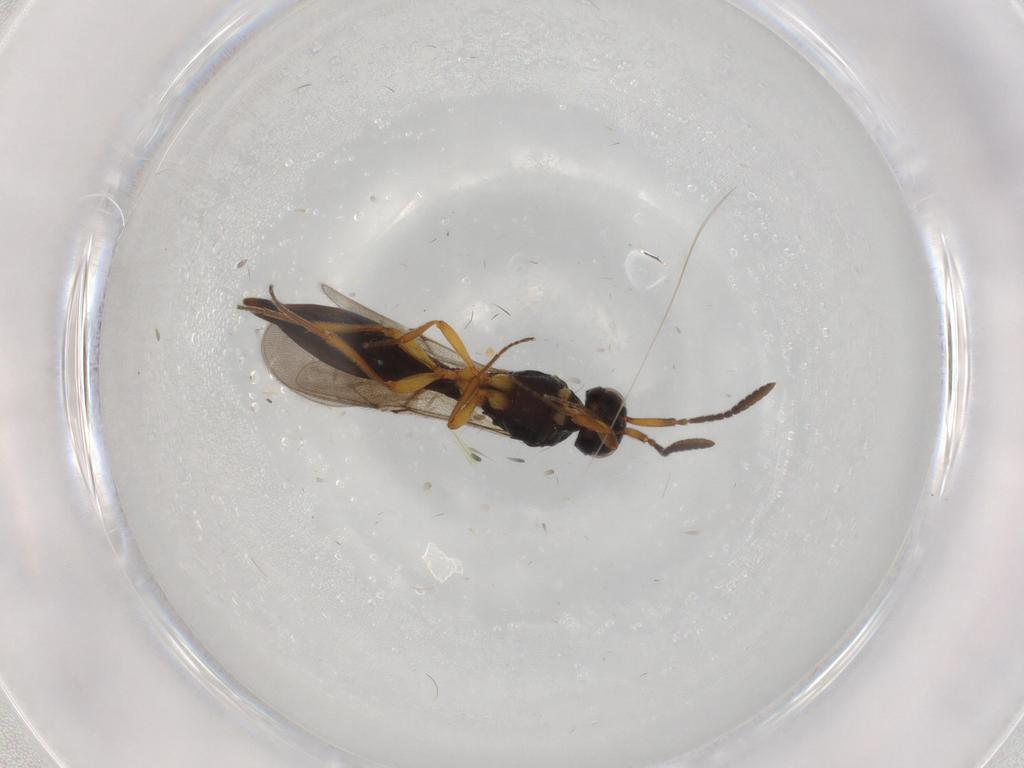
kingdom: Animalia
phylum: Arthropoda
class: Insecta
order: Hymenoptera
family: Scelionidae
